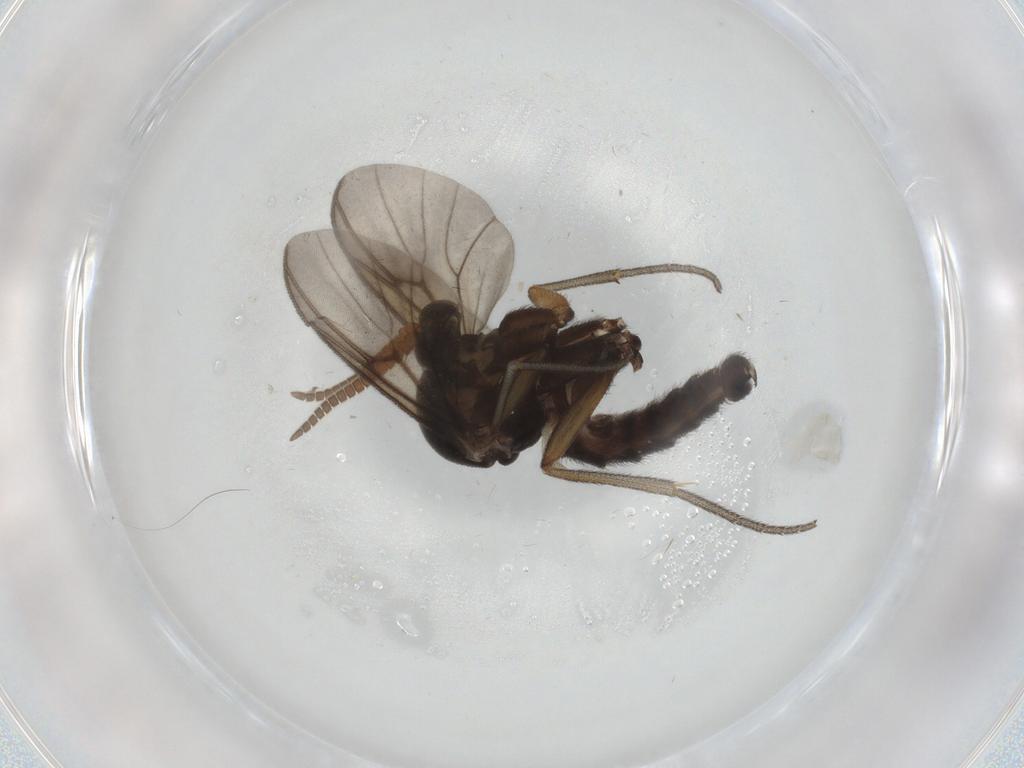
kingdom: Animalia
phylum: Arthropoda
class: Insecta
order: Diptera
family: Mycetophilidae
